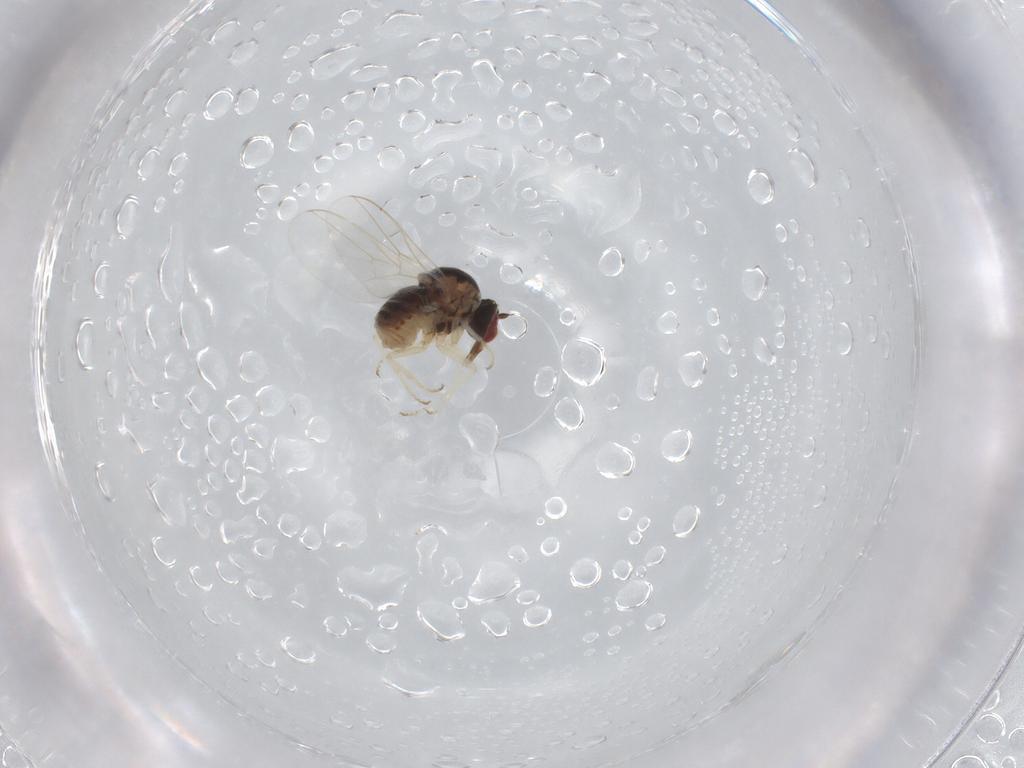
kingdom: Animalia
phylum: Arthropoda
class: Insecta
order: Diptera
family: Bombyliidae
